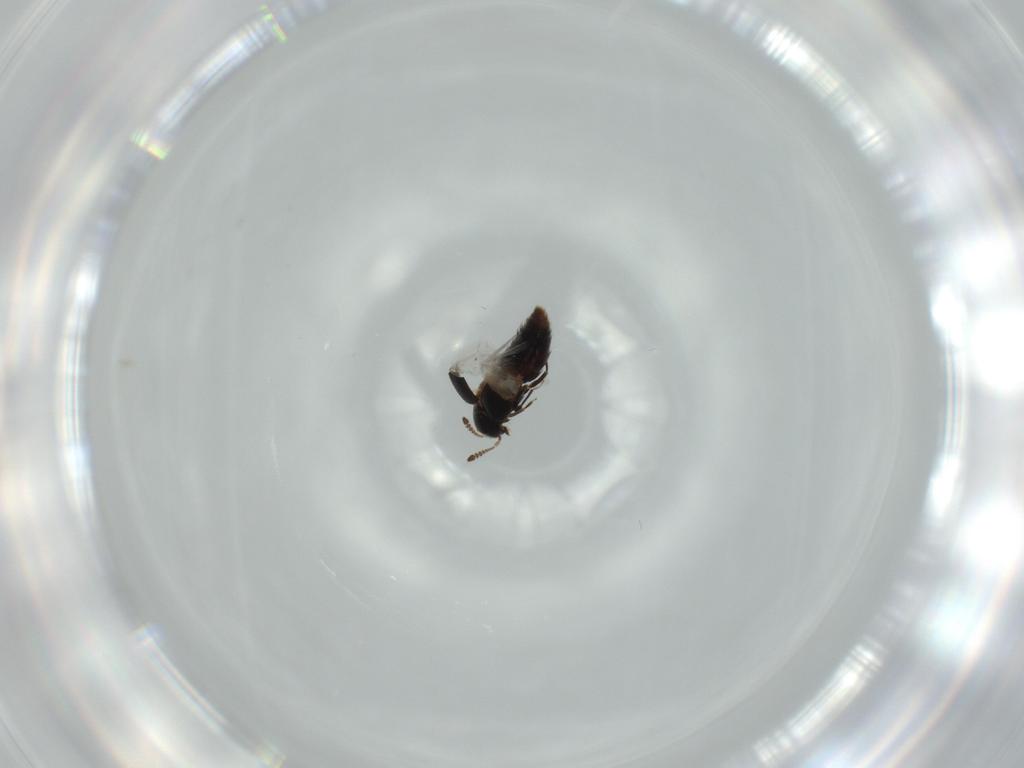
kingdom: Animalia
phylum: Arthropoda
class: Insecta
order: Coleoptera
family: Staphylinidae
